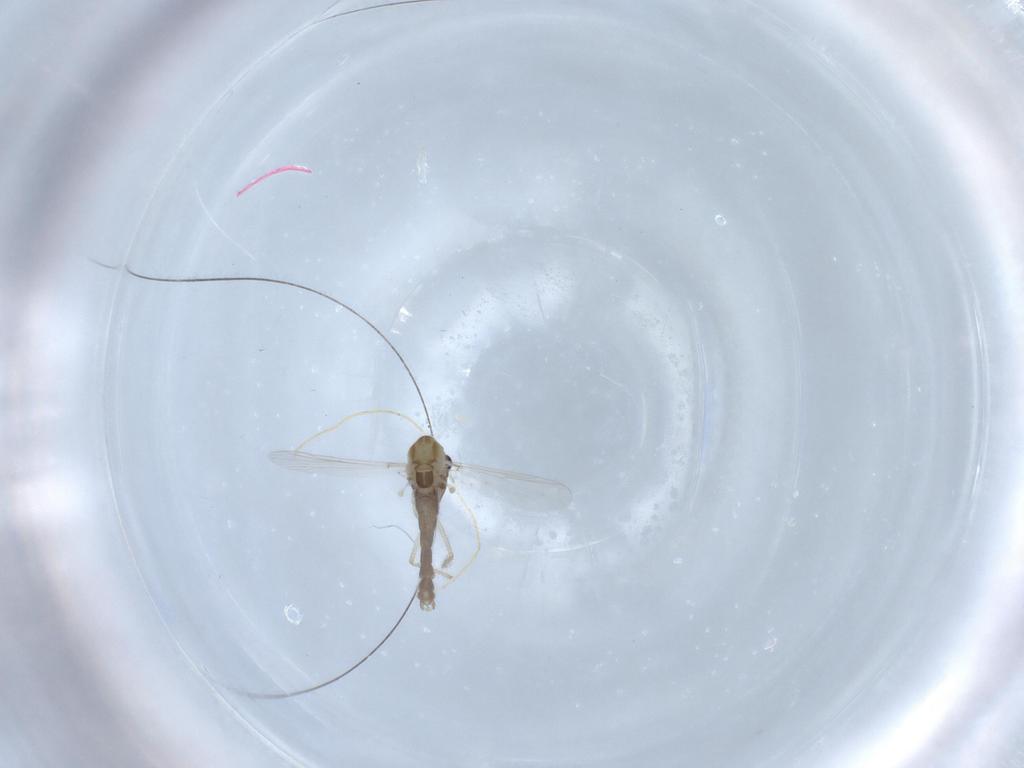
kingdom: Animalia
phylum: Arthropoda
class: Insecta
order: Diptera
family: Chironomidae
